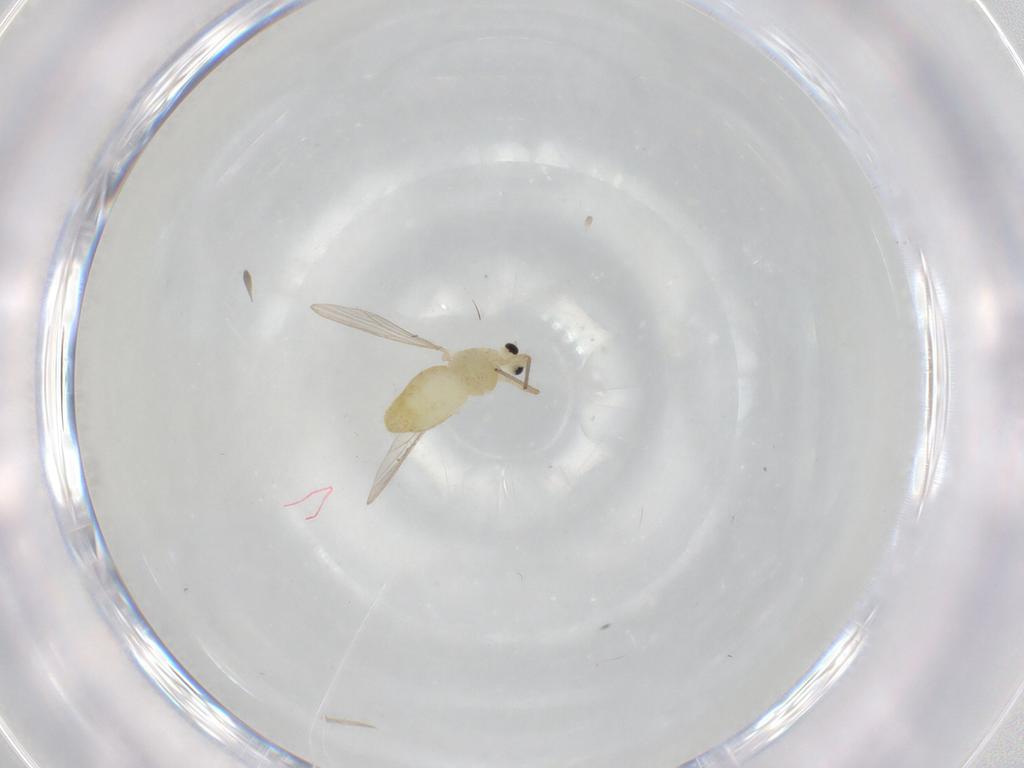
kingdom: Animalia
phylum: Arthropoda
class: Insecta
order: Diptera
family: Chironomidae
